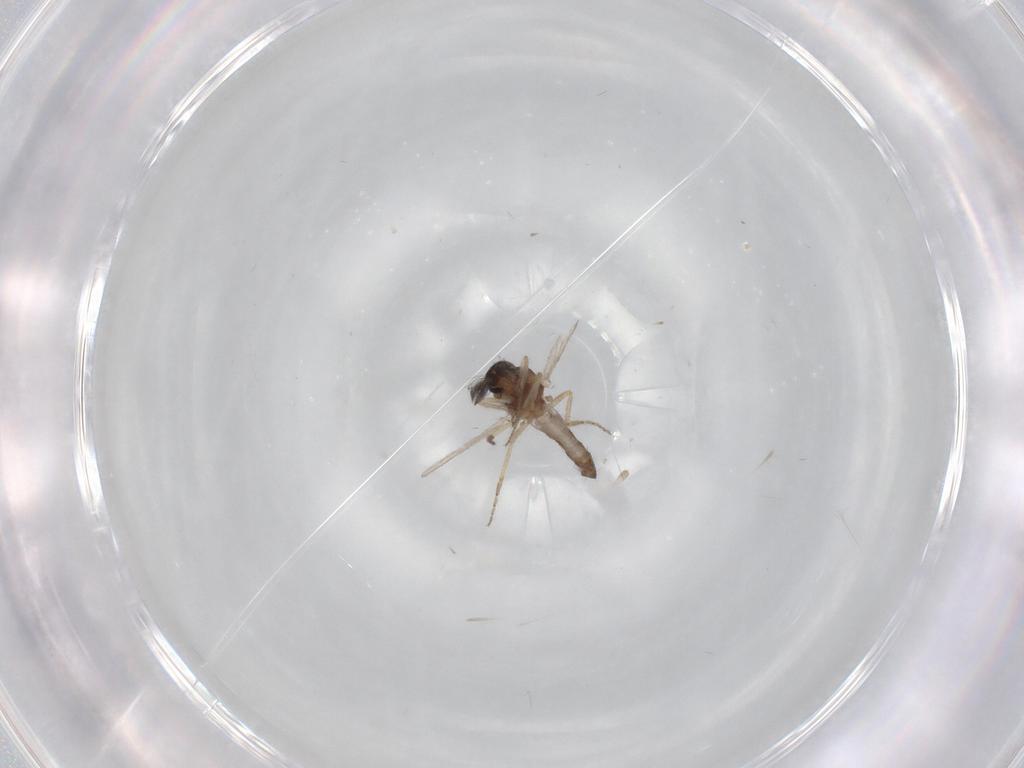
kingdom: Animalia
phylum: Arthropoda
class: Insecta
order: Diptera
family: Ceratopogonidae
